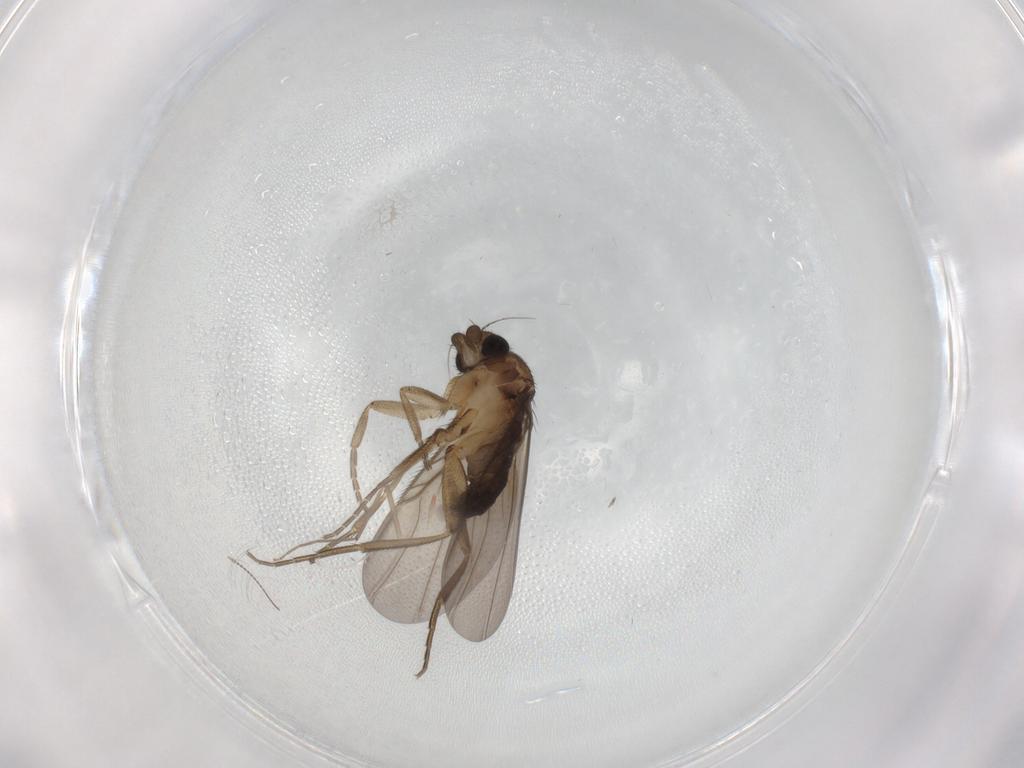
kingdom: Animalia
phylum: Arthropoda
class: Insecta
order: Diptera
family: Phoridae
